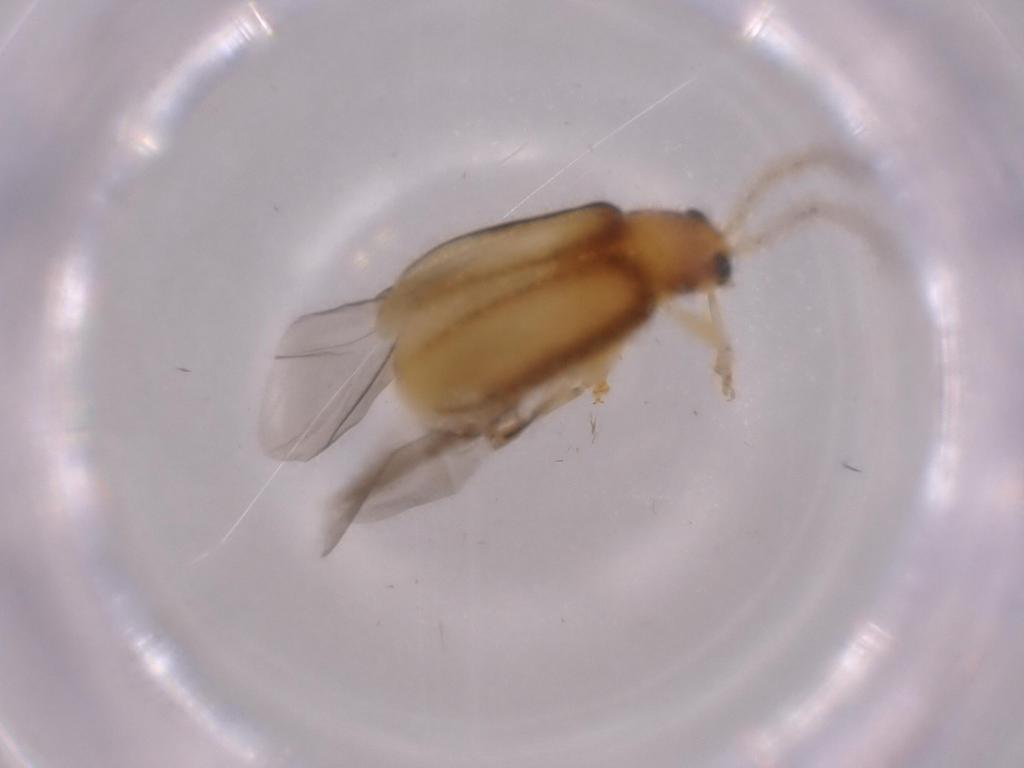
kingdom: Animalia
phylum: Arthropoda
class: Insecta
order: Coleoptera
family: Chrysomelidae
